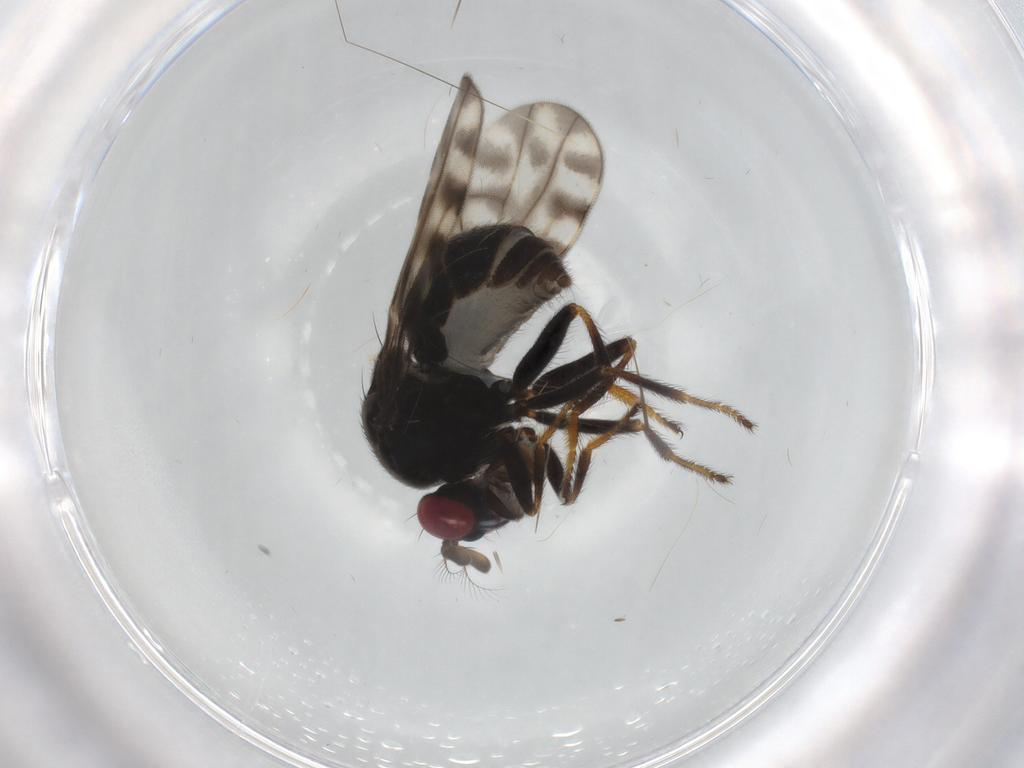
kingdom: Animalia
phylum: Arthropoda
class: Insecta
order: Diptera
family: Ephydridae
